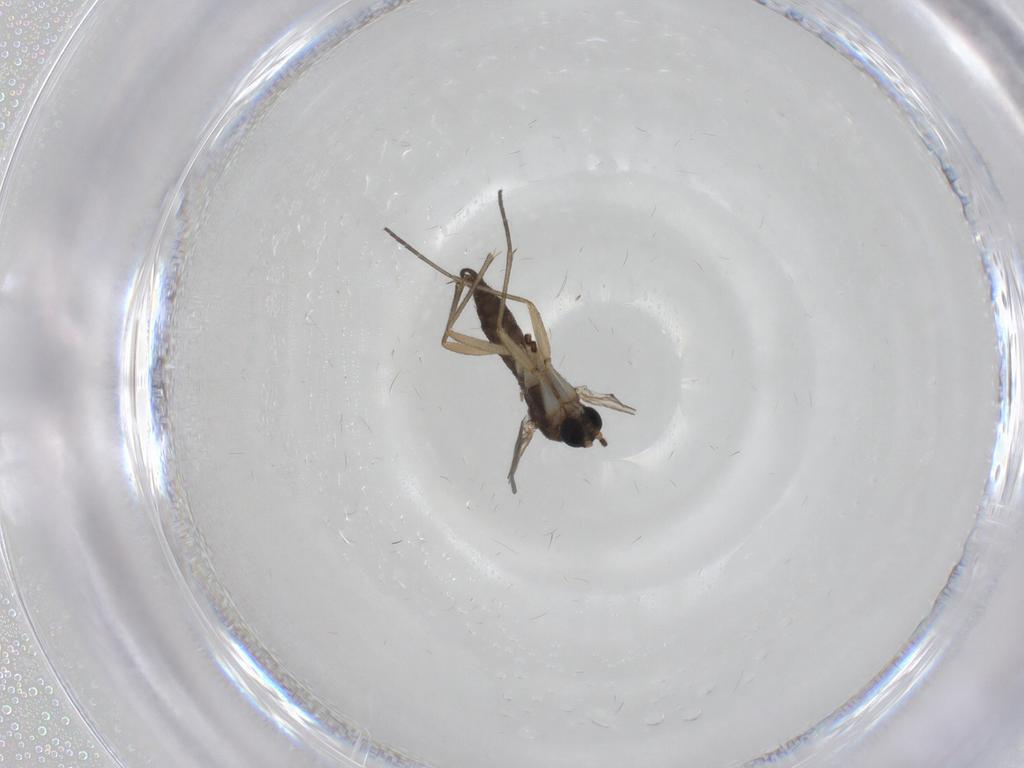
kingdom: Animalia
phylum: Arthropoda
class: Insecta
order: Diptera
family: Sciaridae
